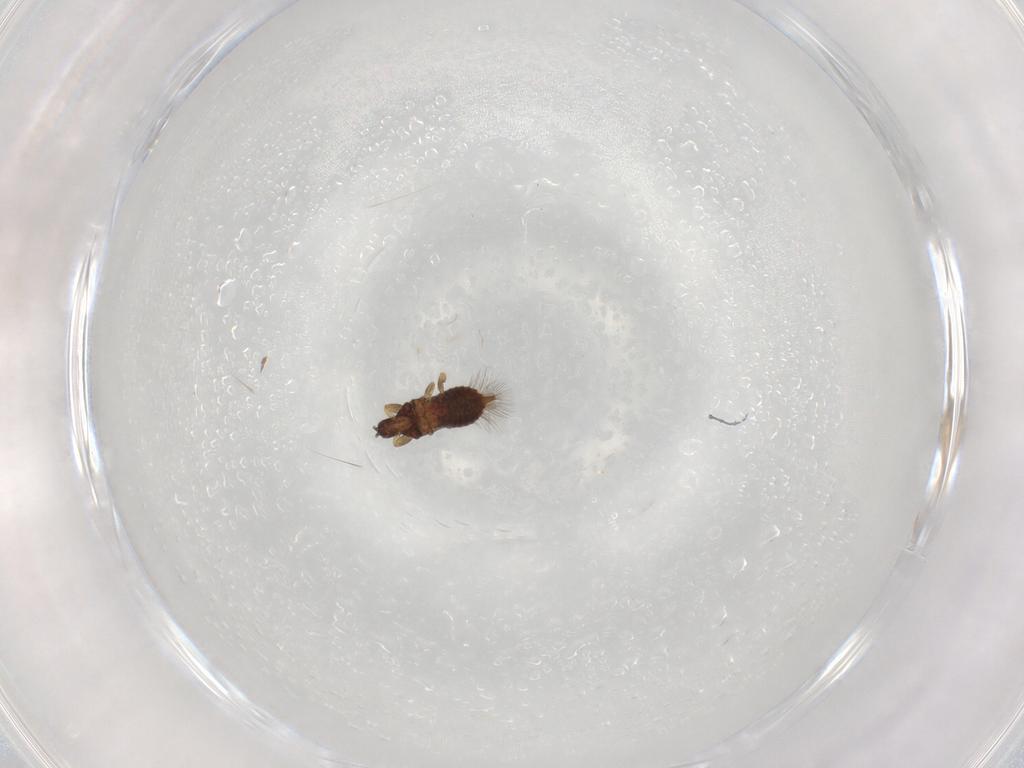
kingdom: Animalia
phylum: Arthropoda
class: Insecta
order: Thysanoptera
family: Phlaeothripidae
